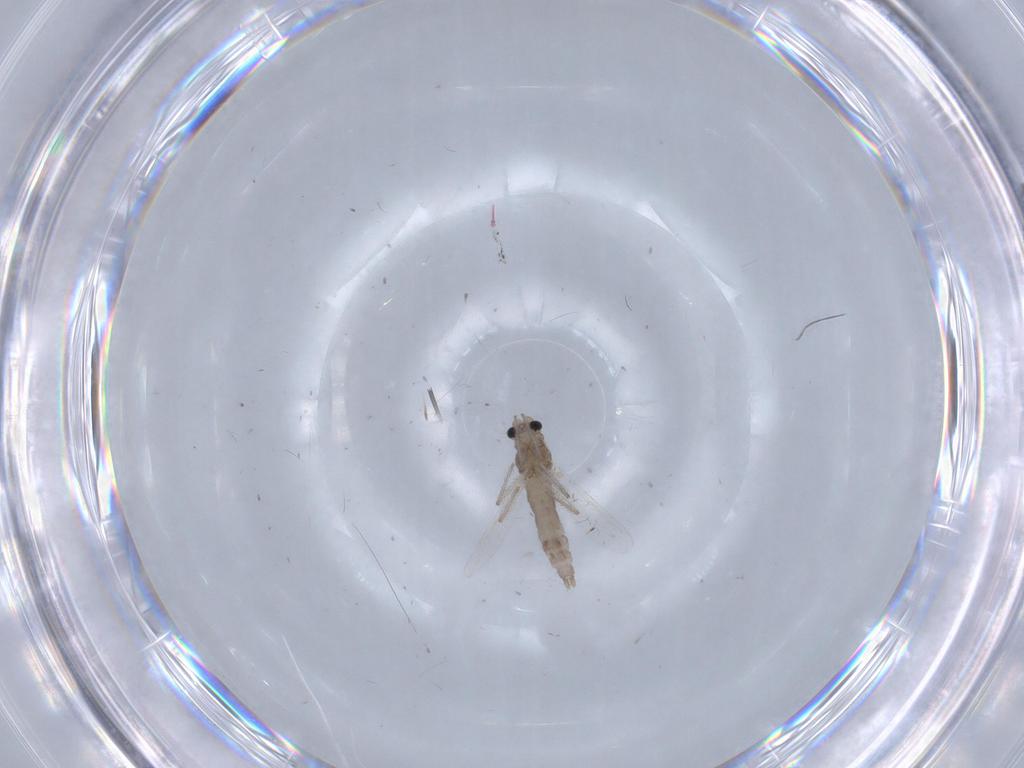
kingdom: Animalia
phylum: Arthropoda
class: Insecta
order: Diptera
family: Chironomidae
